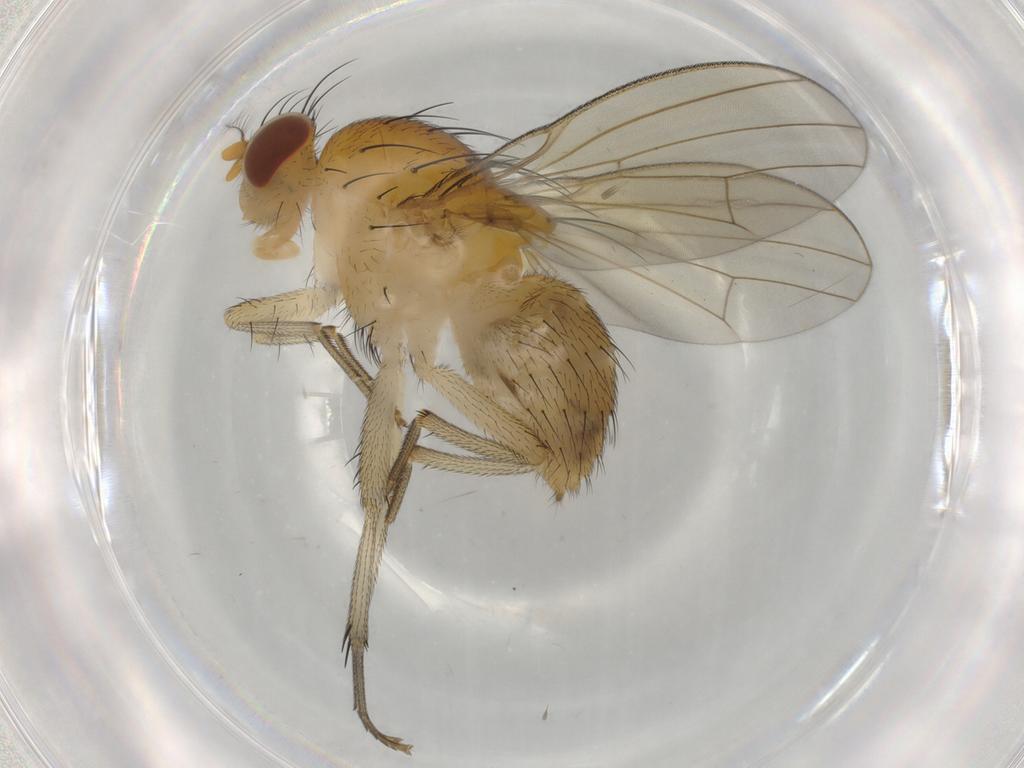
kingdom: Animalia
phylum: Arthropoda
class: Insecta
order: Diptera
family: Lauxaniidae
